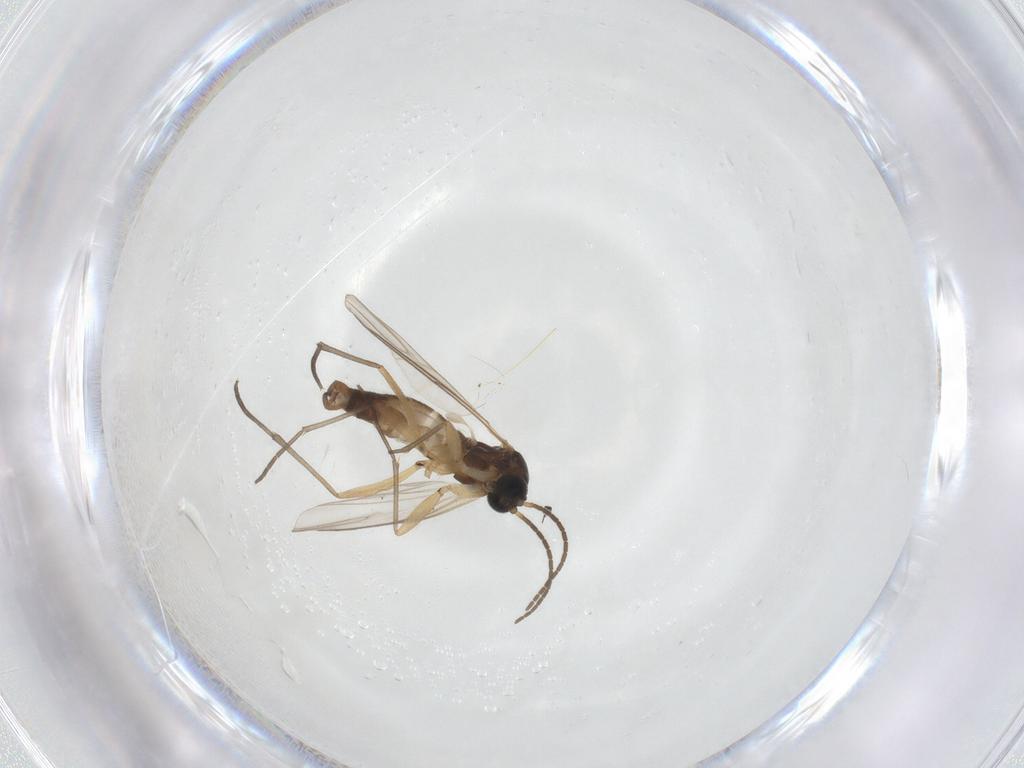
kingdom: Animalia
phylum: Arthropoda
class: Insecta
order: Diptera
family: Sciaridae
